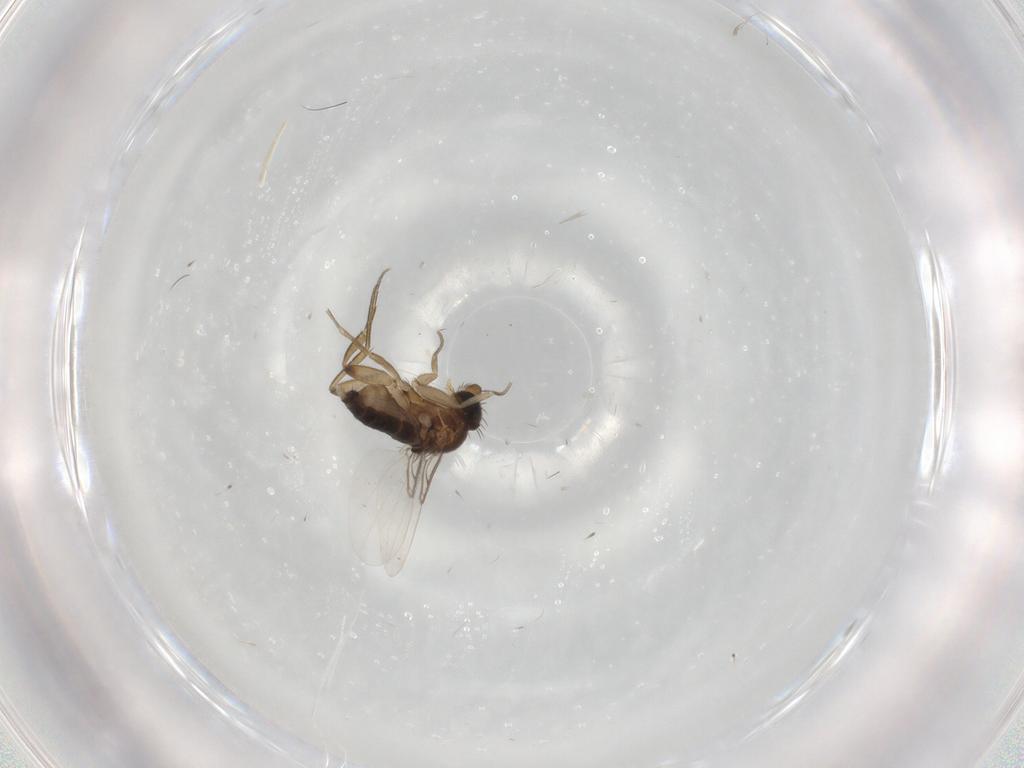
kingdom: Animalia
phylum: Arthropoda
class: Insecta
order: Diptera
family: Phoridae
